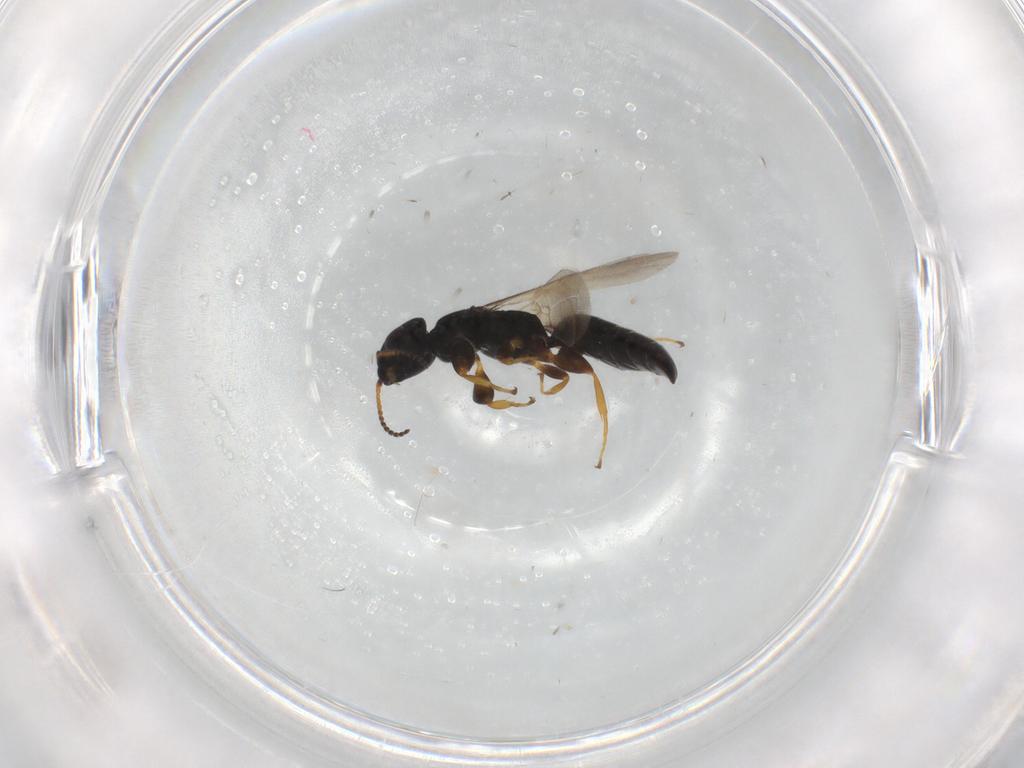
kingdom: Animalia
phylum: Arthropoda
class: Insecta
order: Hymenoptera
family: Bethylidae
